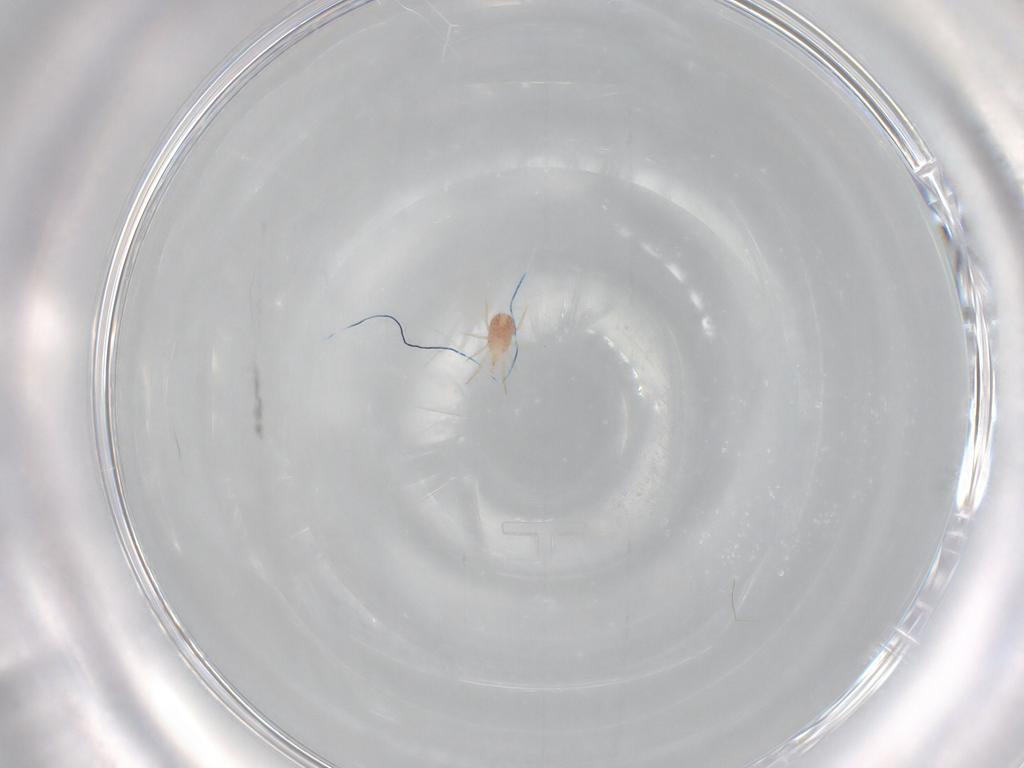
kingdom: Animalia
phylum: Arthropoda
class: Arachnida
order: Mesostigmata
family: Phytoseiidae
